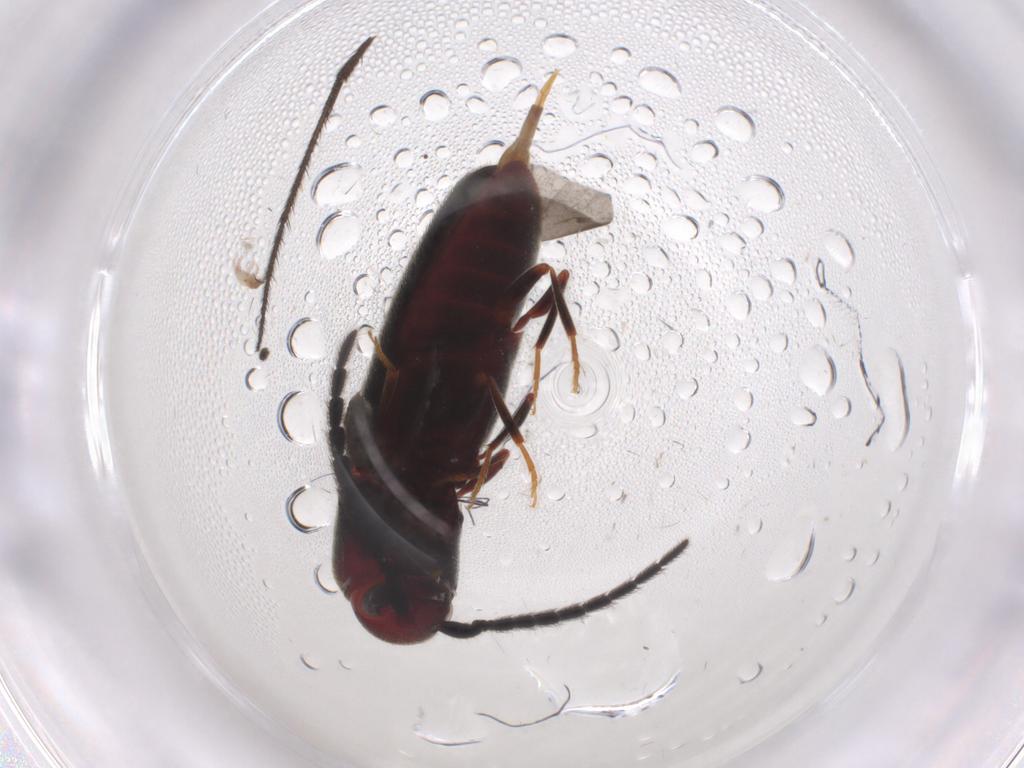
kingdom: Animalia
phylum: Arthropoda
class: Insecta
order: Coleoptera
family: Eucnemidae
